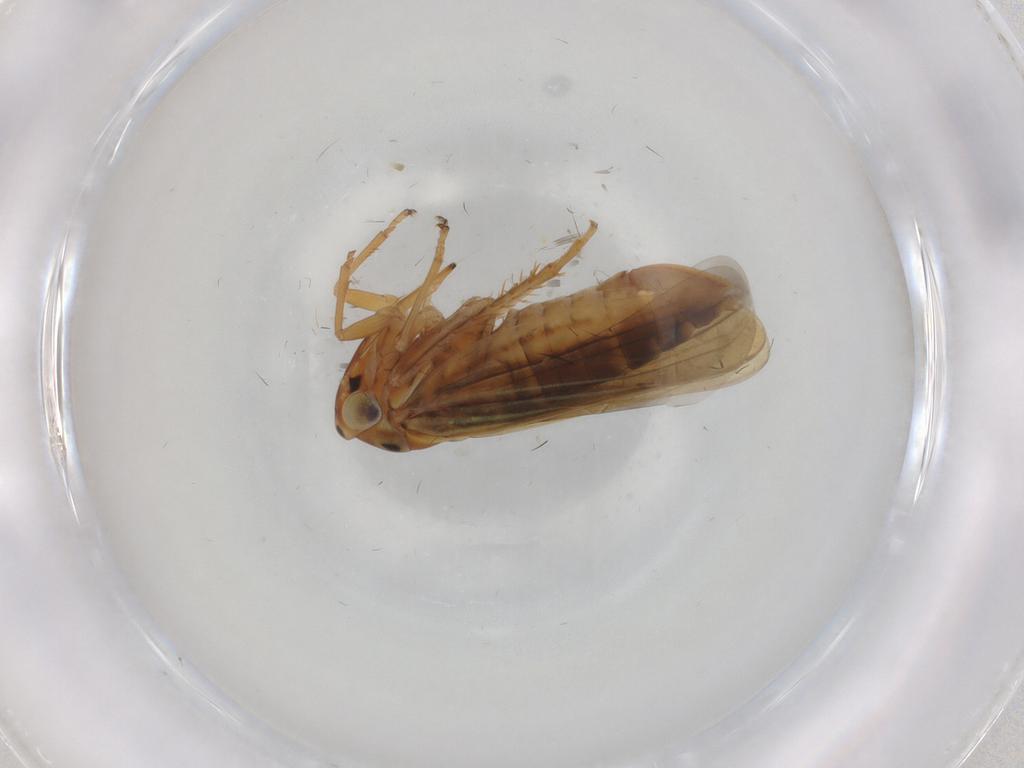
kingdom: Animalia
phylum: Arthropoda
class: Insecta
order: Hemiptera
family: Cicadellidae
